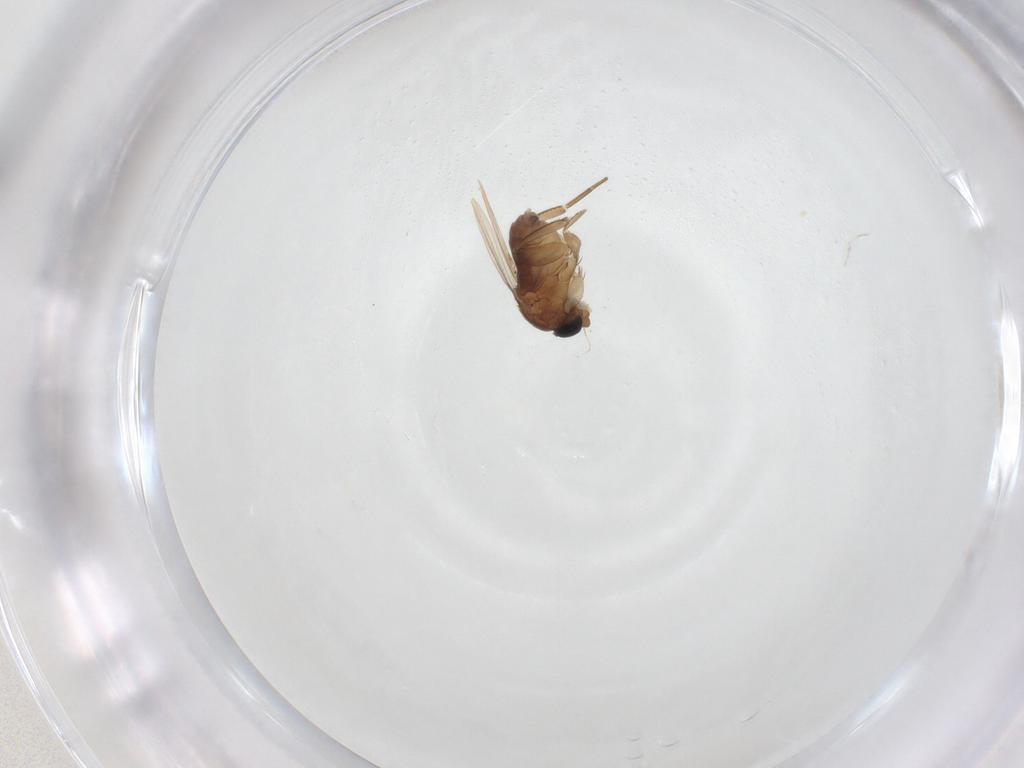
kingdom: Animalia
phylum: Arthropoda
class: Insecta
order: Diptera
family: Phoridae
